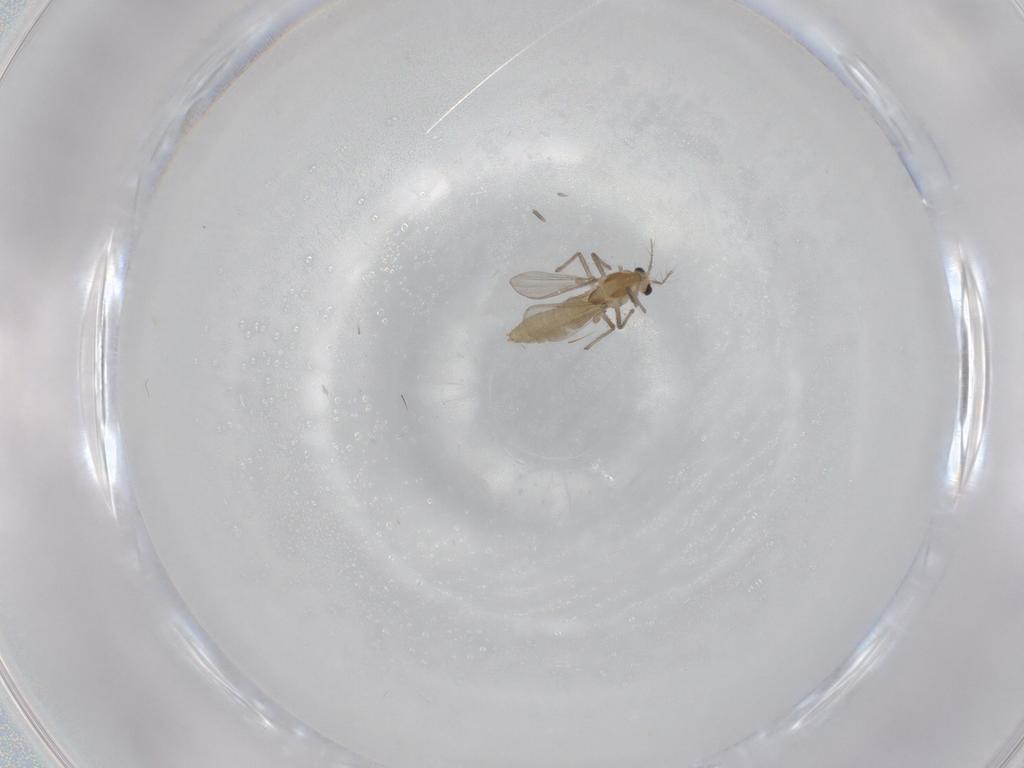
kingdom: Animalia
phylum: Arthropoda
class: Insecta
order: Diptera
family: Chironomidae
